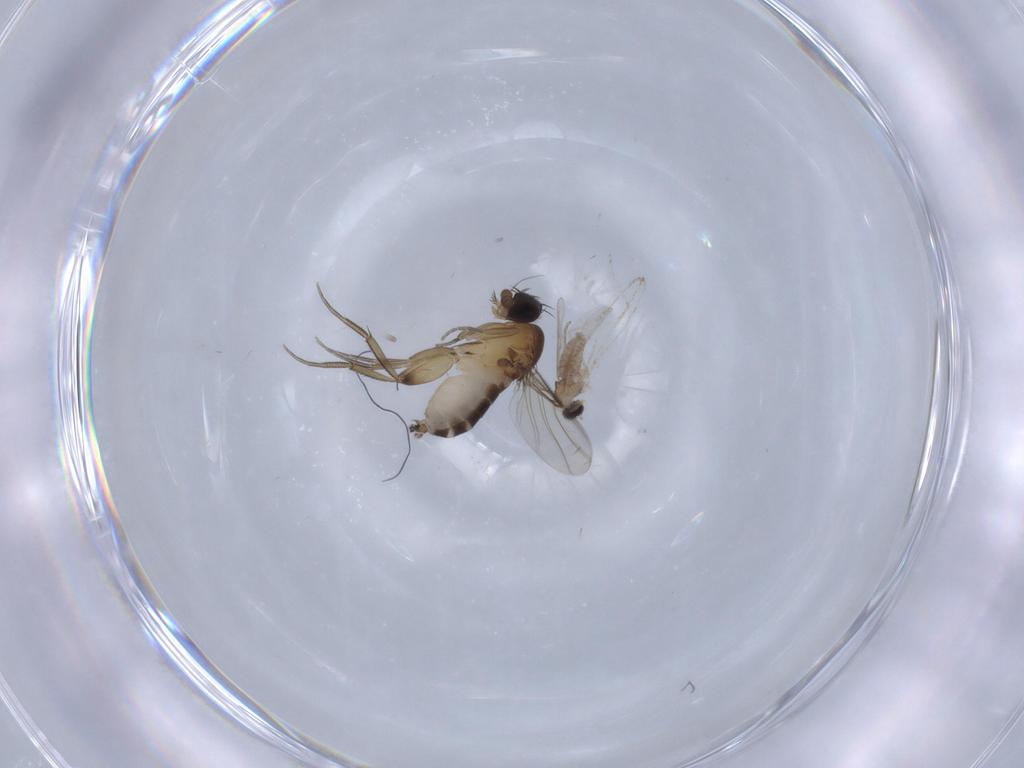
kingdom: Animalia
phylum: Arthropoda
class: Insecta
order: Diptera
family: Phoridae
